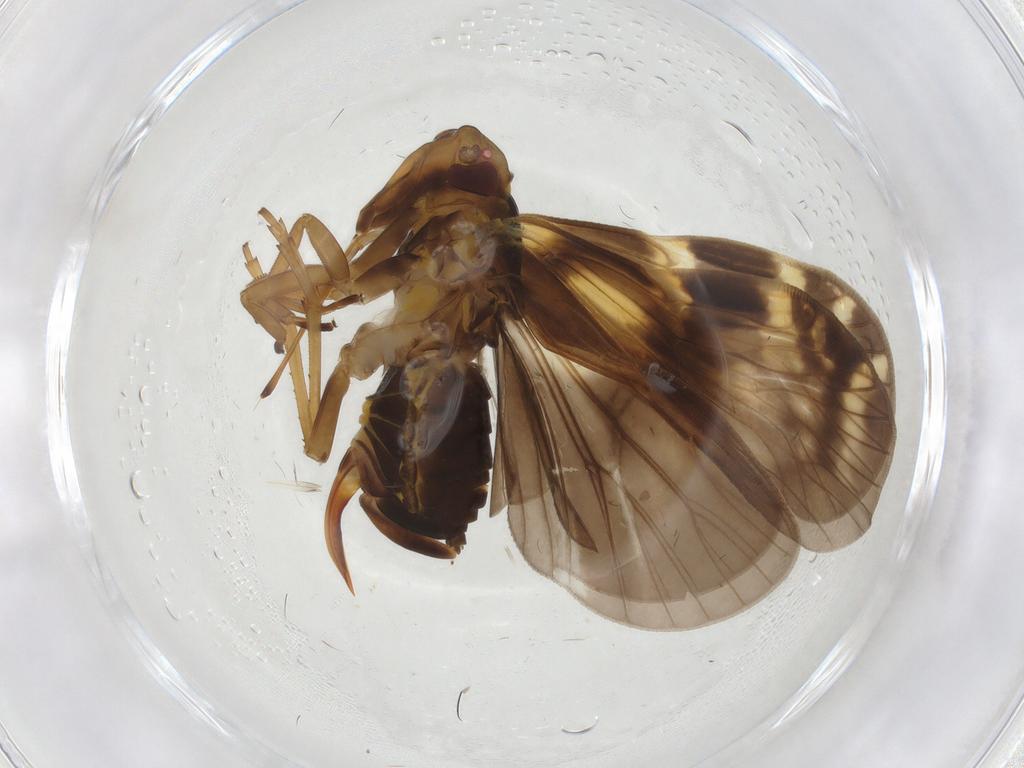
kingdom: Animalia
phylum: Arthropoda
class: Insecta
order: Hemiptera
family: Cixiidae
